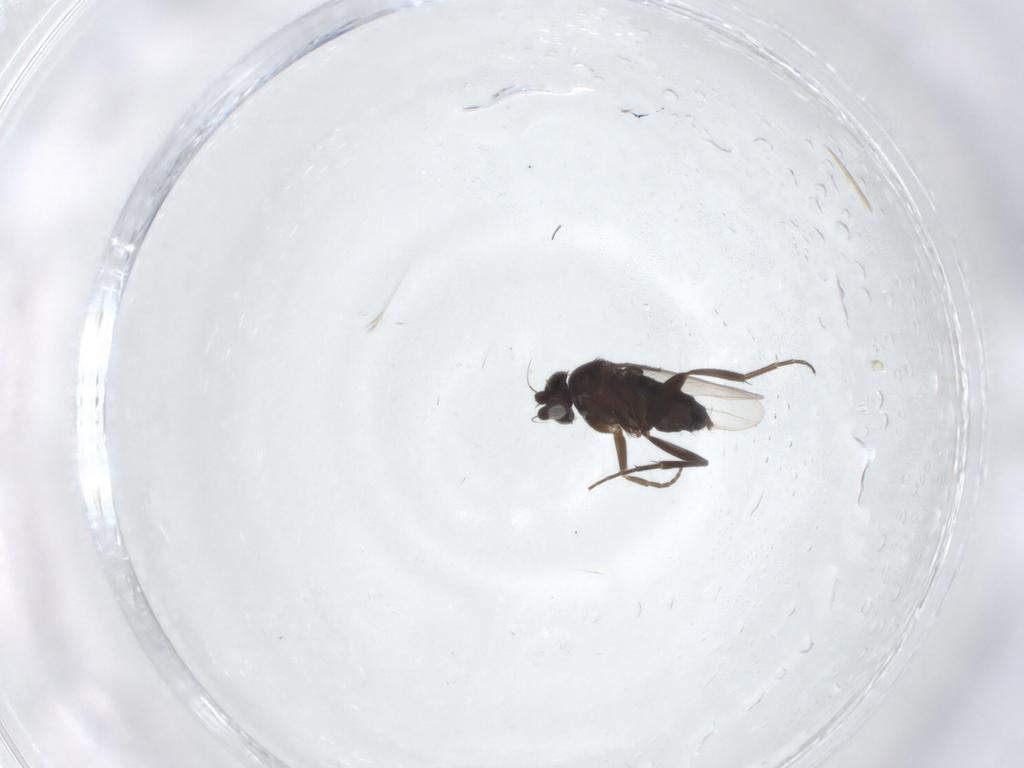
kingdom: Animalia
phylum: Arthropoda
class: Insecta
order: Diptera
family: Phoridae
